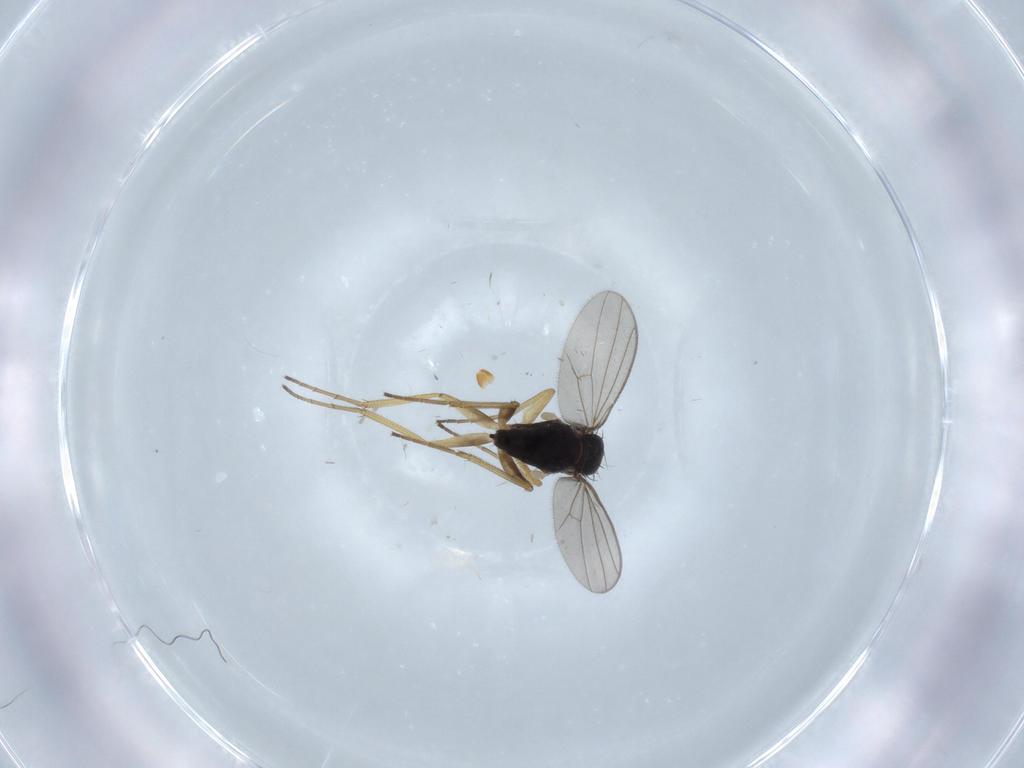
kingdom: Animalia
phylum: Arthropoda
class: Insecta
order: Diptera
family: Dolichopodidae
